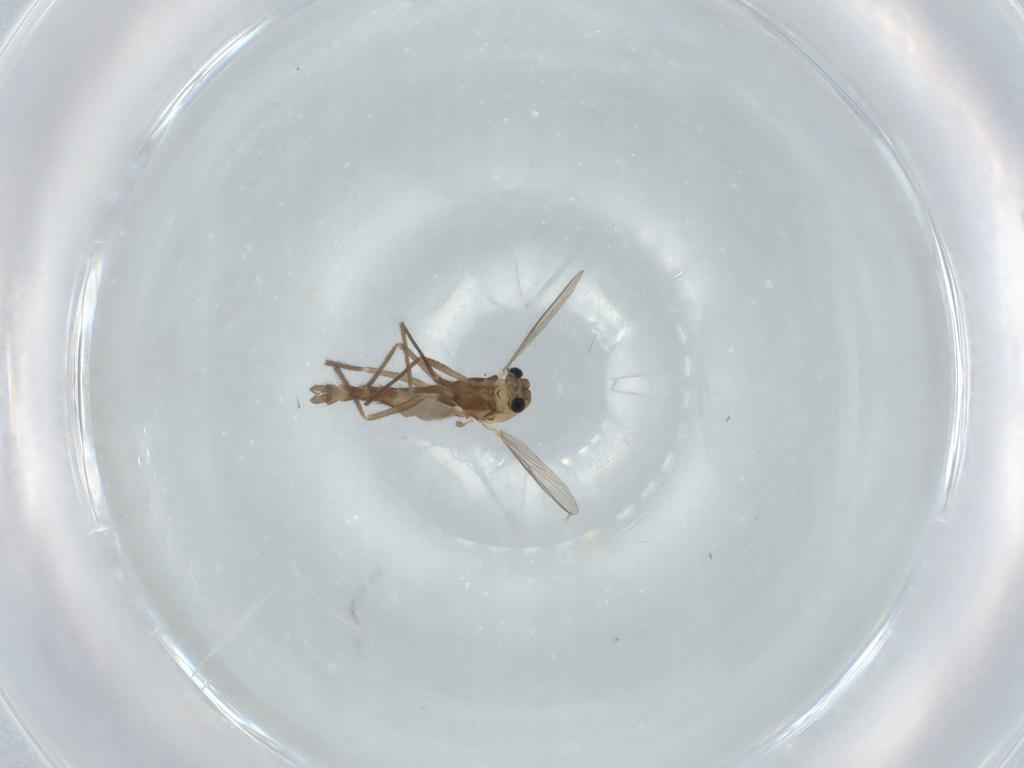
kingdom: Animalia
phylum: Arthropoda
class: Insecta
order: Diptera
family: Chironomidae
